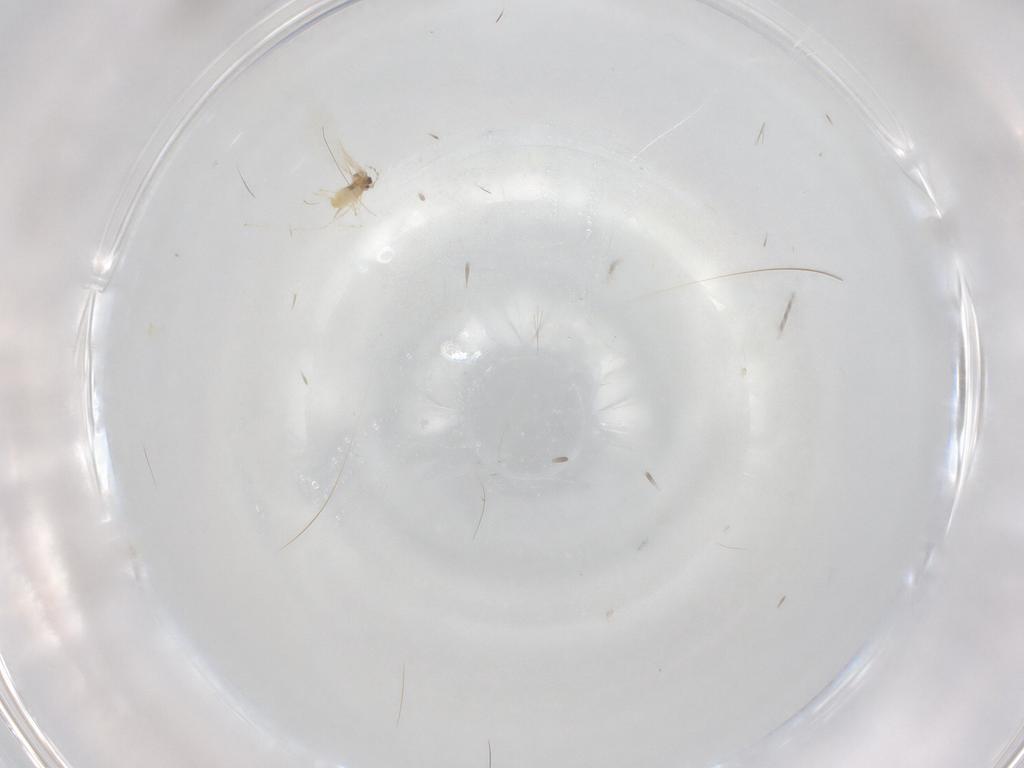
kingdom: Animalia
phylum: Arthropoda
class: Insecta
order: Diptera
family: Cecidomyiidae
